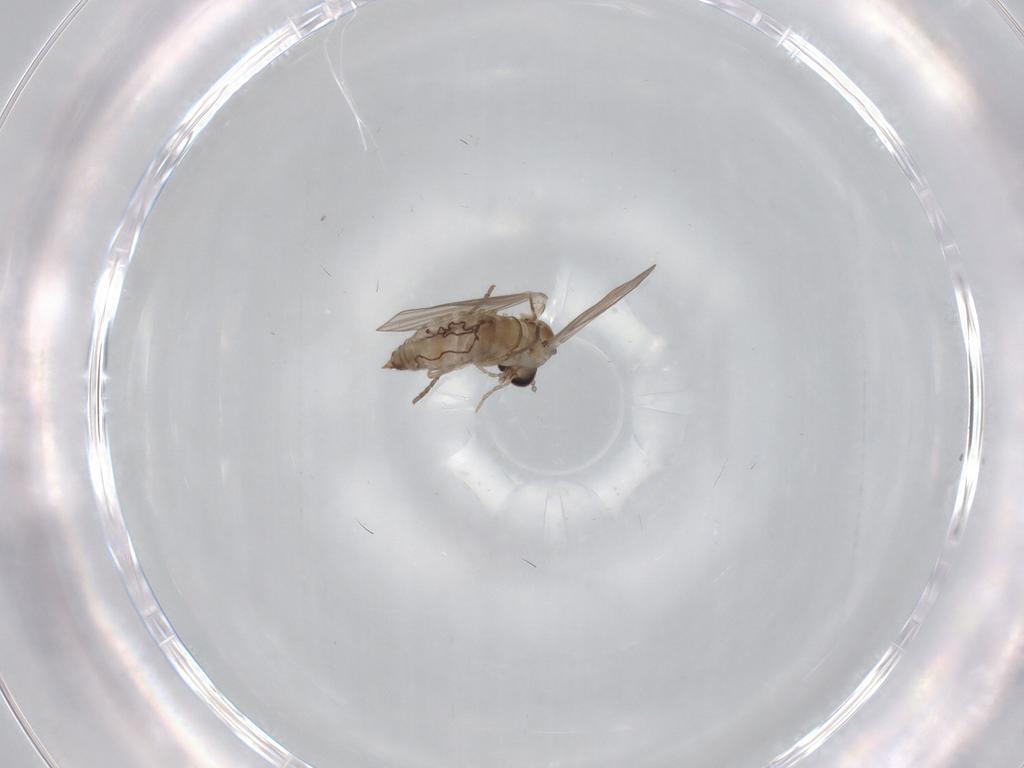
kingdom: Animalia
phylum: Arthropoda
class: Insecta
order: Diptera
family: Psychodidae
